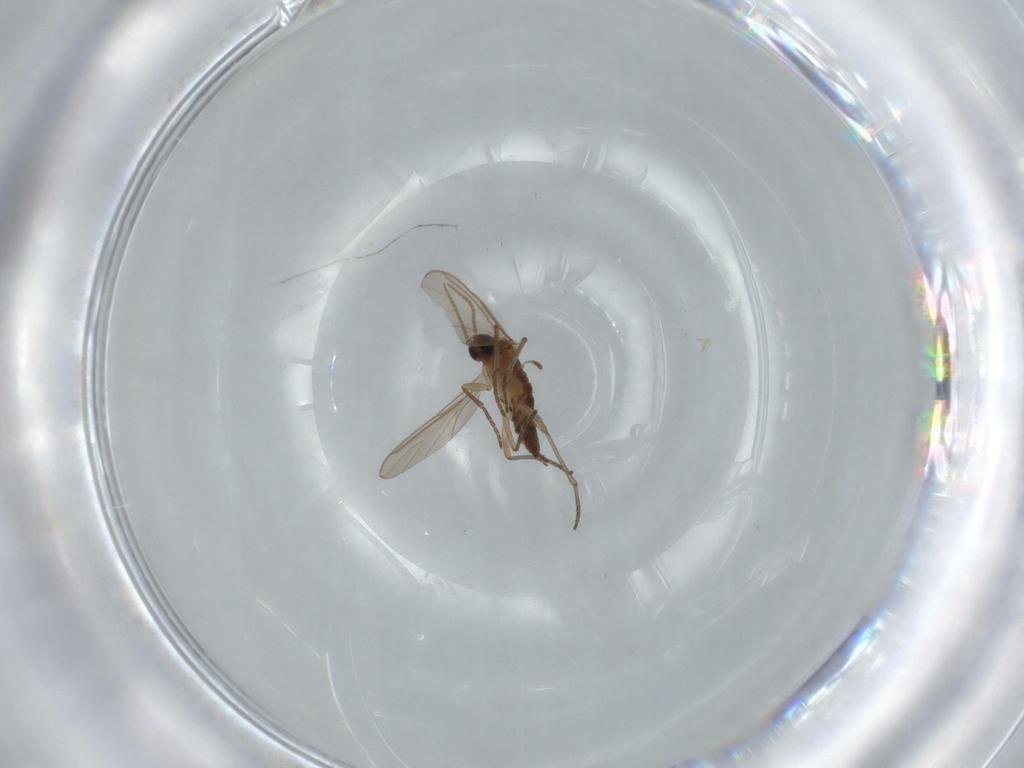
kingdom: Animalia
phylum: Arthropoda
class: Insecta
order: Diptera
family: Sciaridae
